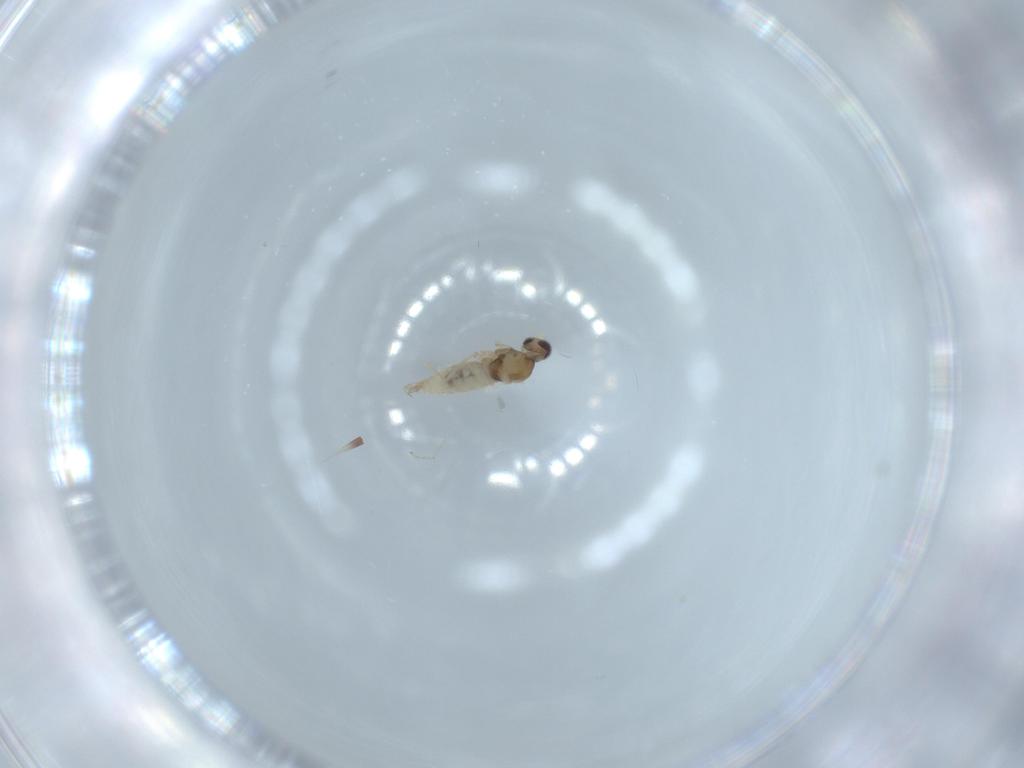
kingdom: Animalia
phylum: Arthropoda
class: Insecta
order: Diptera
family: Cecidomyiidae
